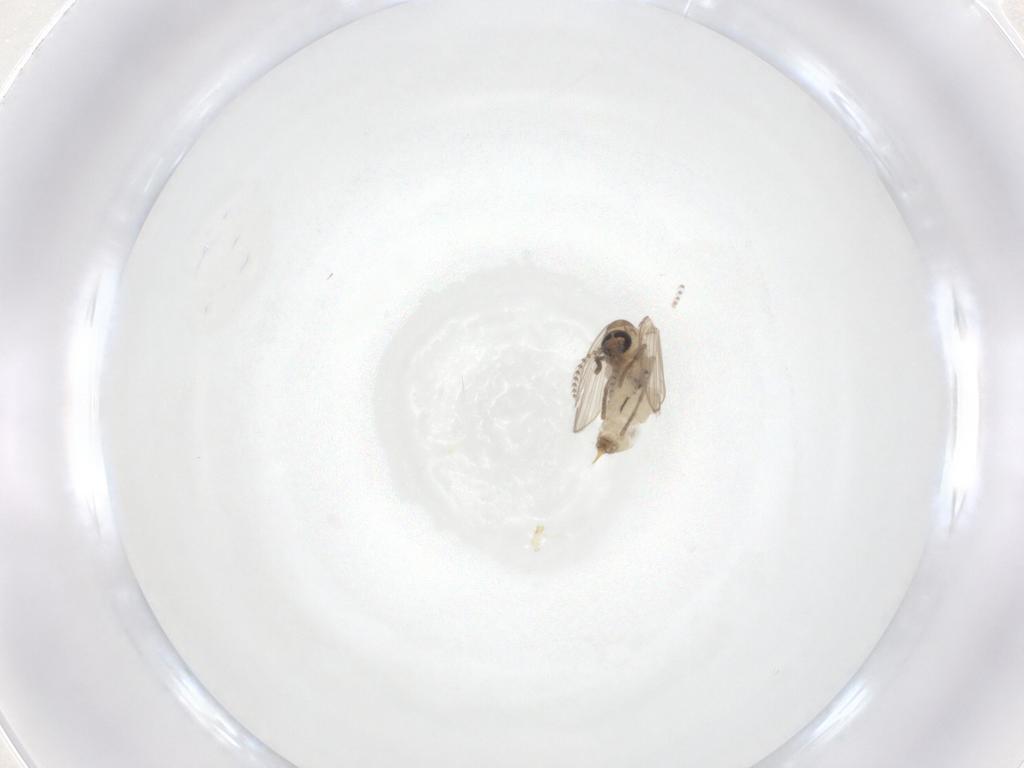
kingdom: Animalia
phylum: Arthropoda
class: Insecta
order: Diptera
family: Psychodidae
